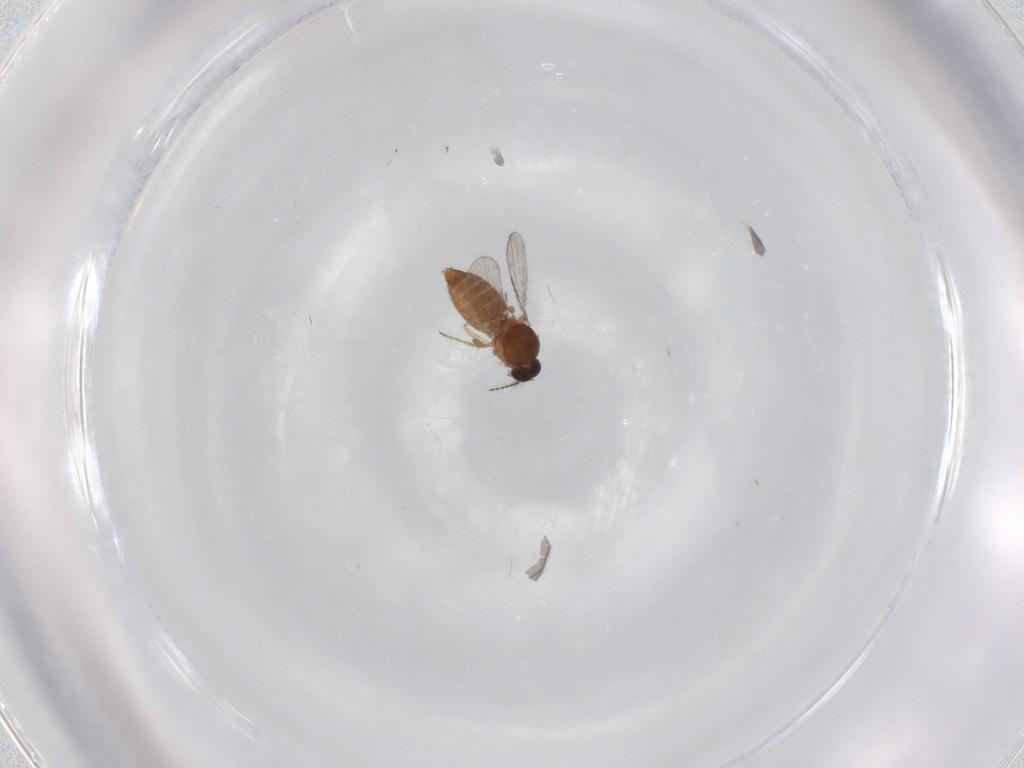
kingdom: Animalia
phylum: Arthropoda
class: Insecta
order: Diptera
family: Ceratopogonidae
